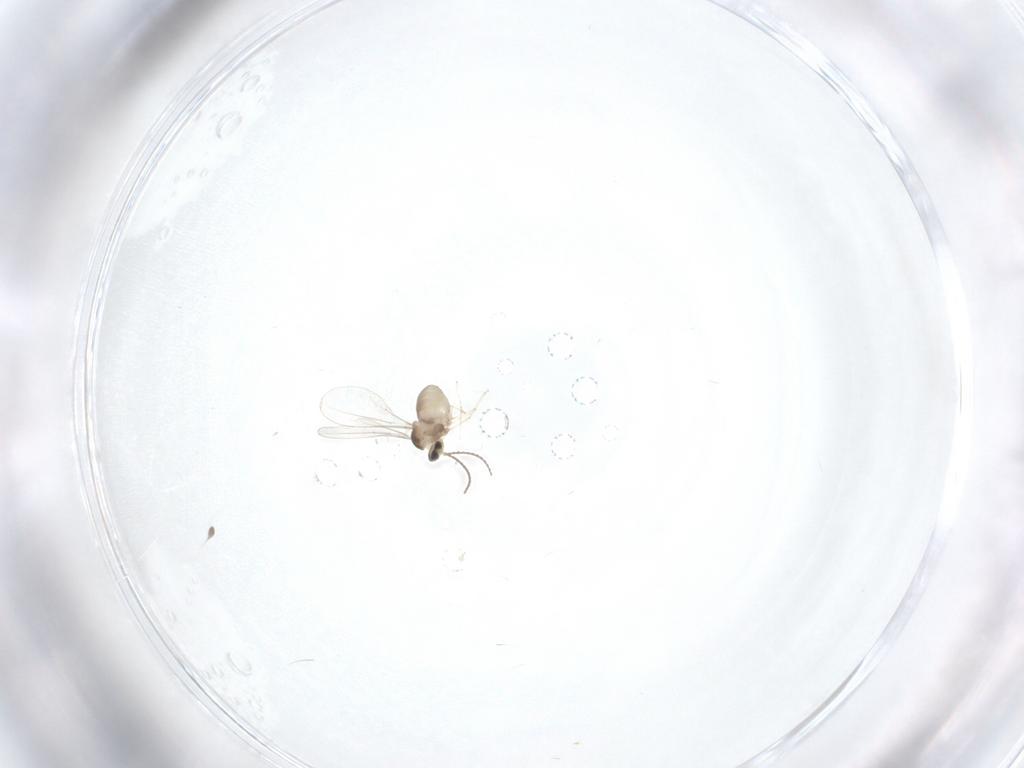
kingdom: Animalia
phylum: Arthropoda
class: Insecta
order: Diptera
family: Cecidomyiidae
